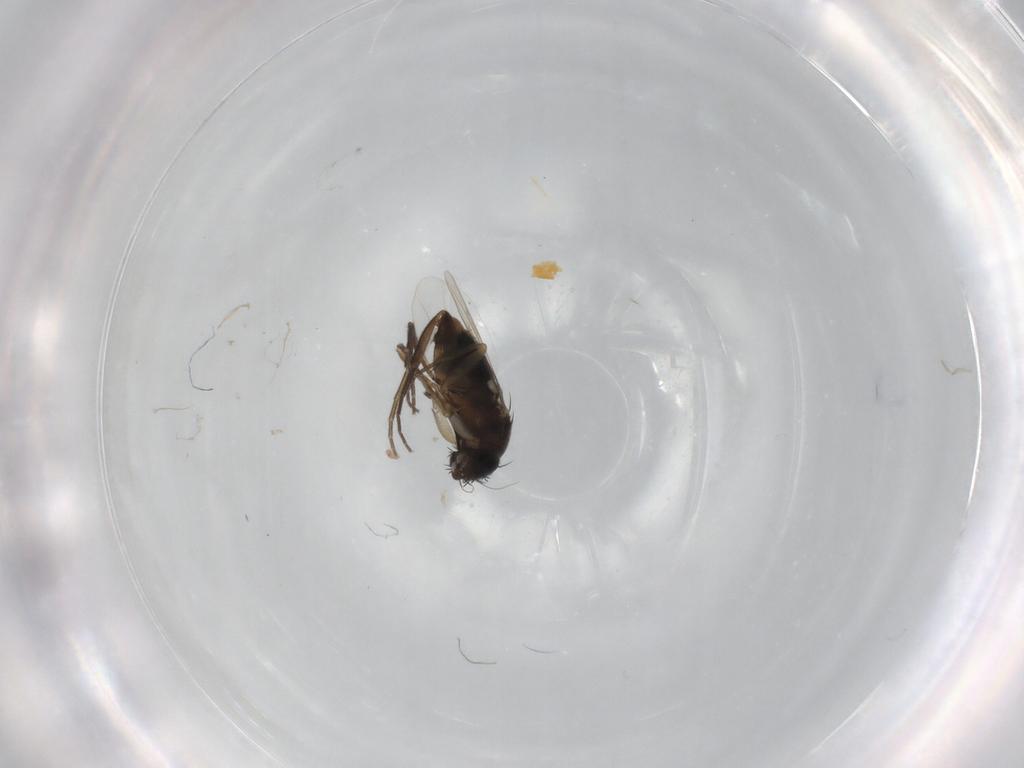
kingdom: Animalia
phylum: Arthropoda
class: Insecta
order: Diptera
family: Phoridae
